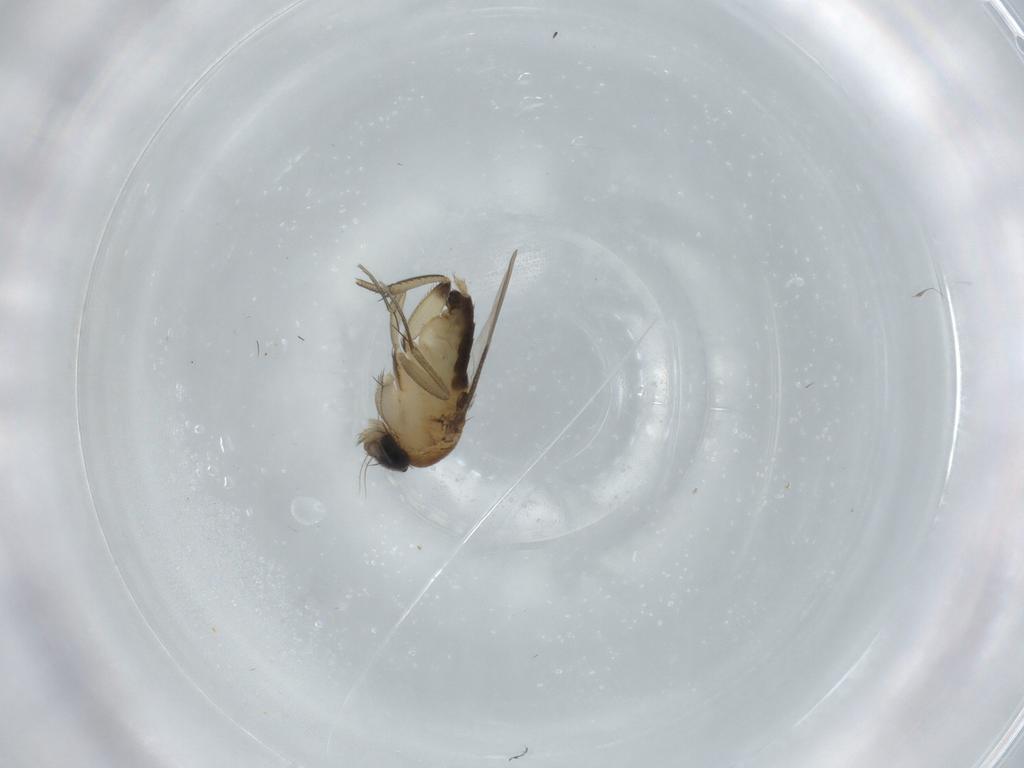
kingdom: Animalia
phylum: Arthropoda
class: Insecta
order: Diptera
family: Phoridae
